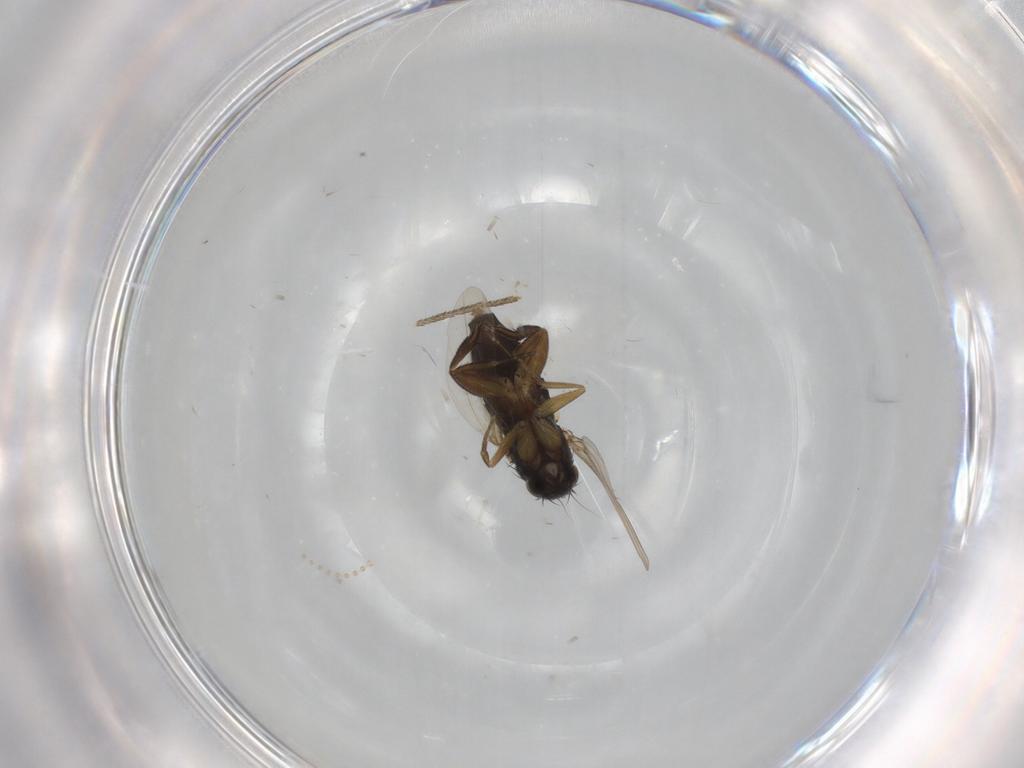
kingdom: Animalia
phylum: Arthropoda
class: Insecta
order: Diptera
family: Phoridae
